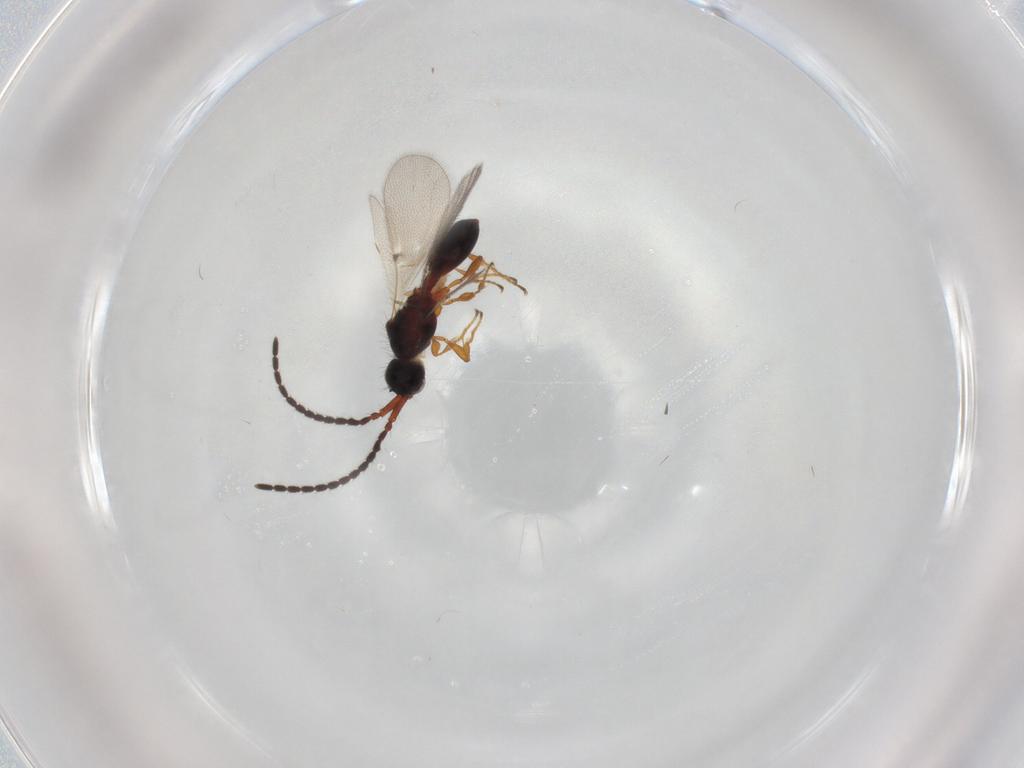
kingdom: Animalia
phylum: Arthropoda
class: Insecta
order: Hymenoptera
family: Diapriidae
